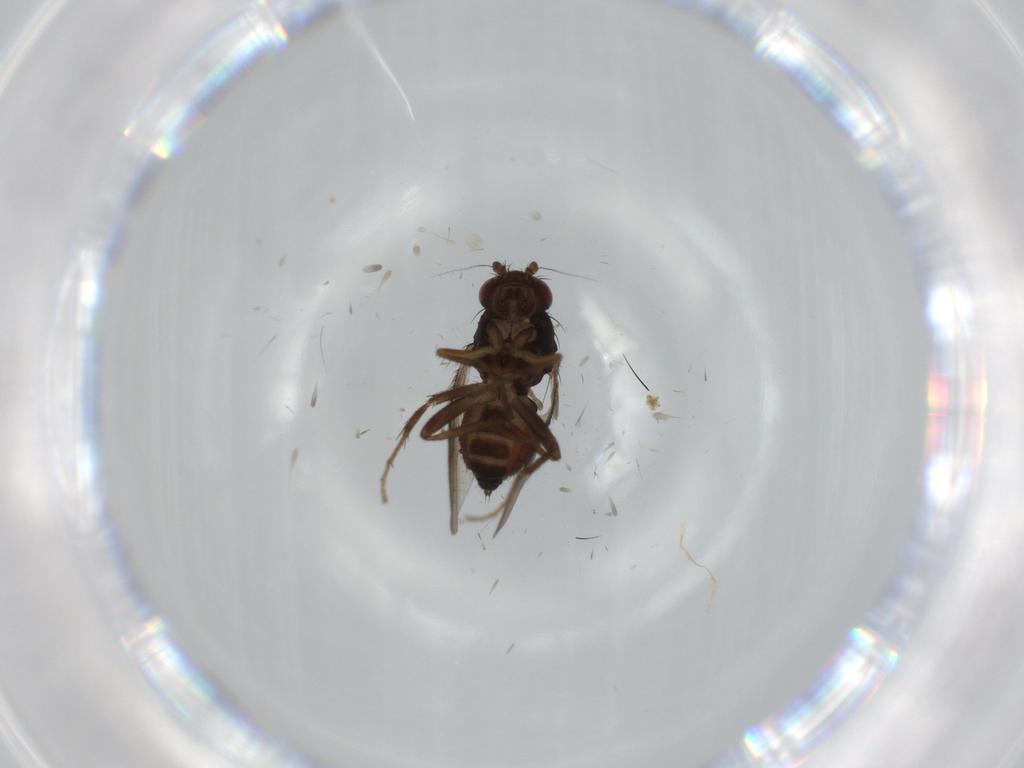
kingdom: Animalia
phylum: Arthropoda
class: Insecta
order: Diptera
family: Sphaeroceridae
